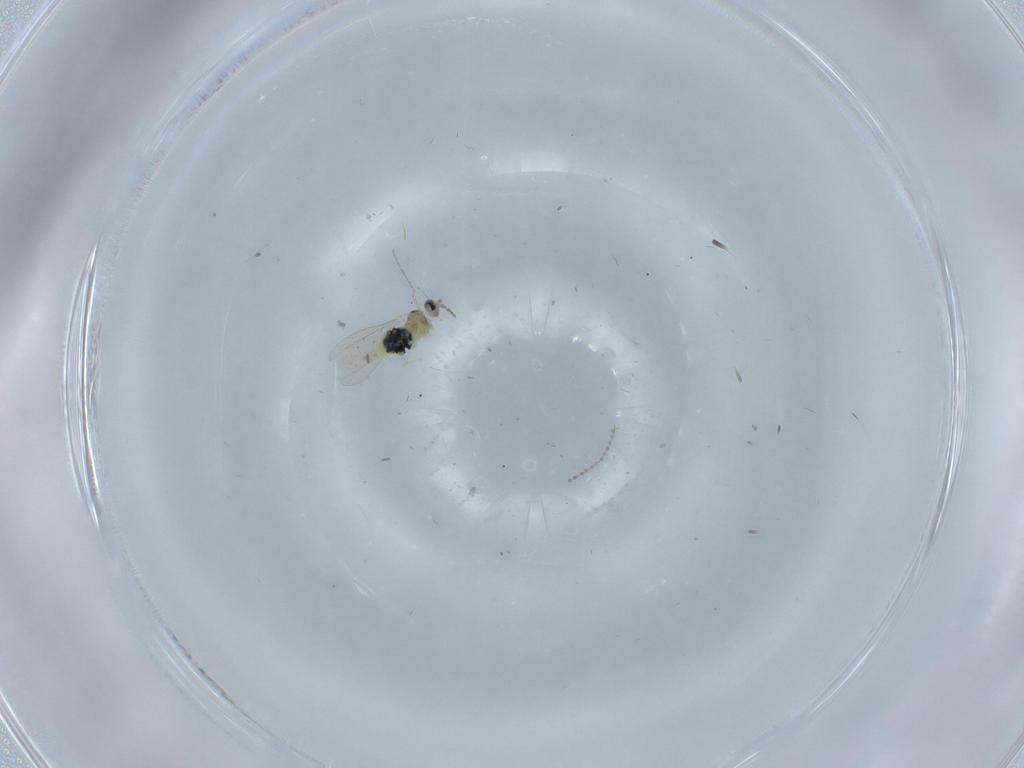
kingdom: Animalia
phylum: Arthropoda
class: Insecta
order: Diptera
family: Cecidomyiidae
